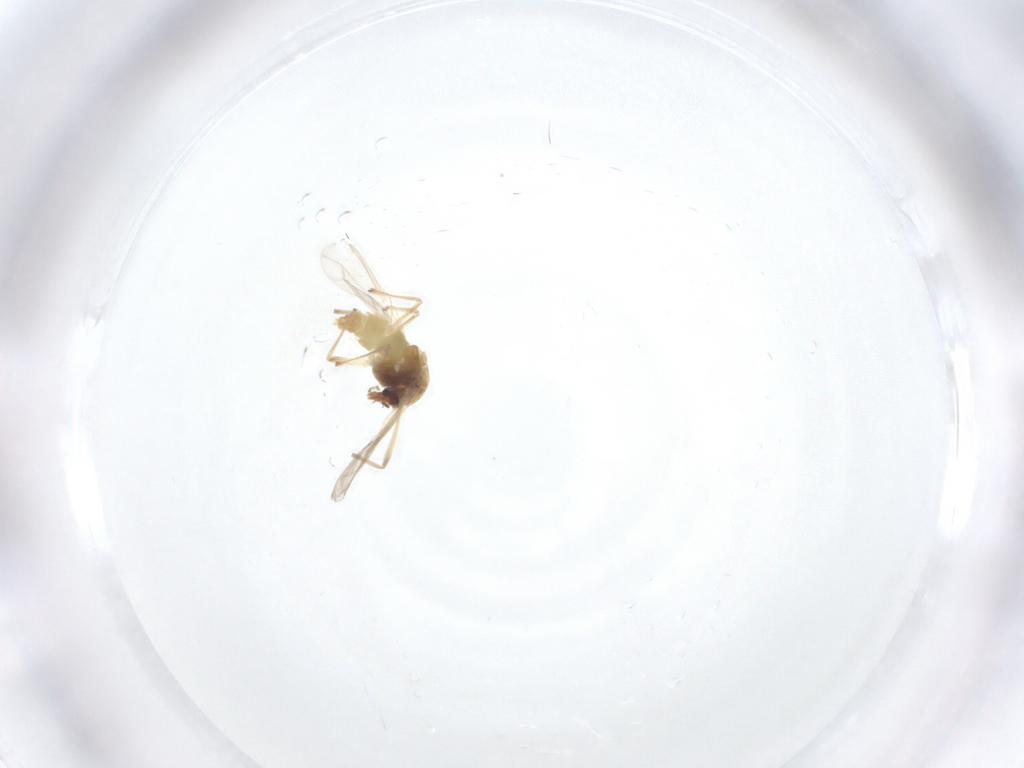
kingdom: Animalia
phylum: Arthropoda
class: Insecta
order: Diptera
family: Chironomidae
